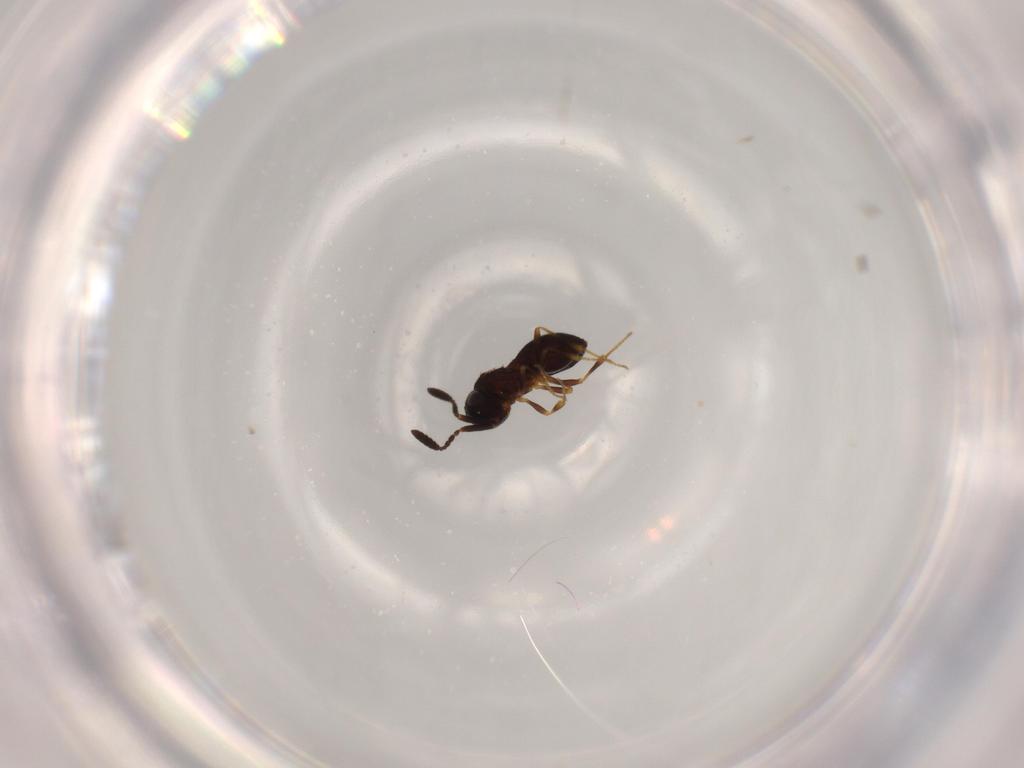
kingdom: Animalia
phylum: Arthropoda
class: Insecta
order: Hymenoptera
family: Scelionidae
